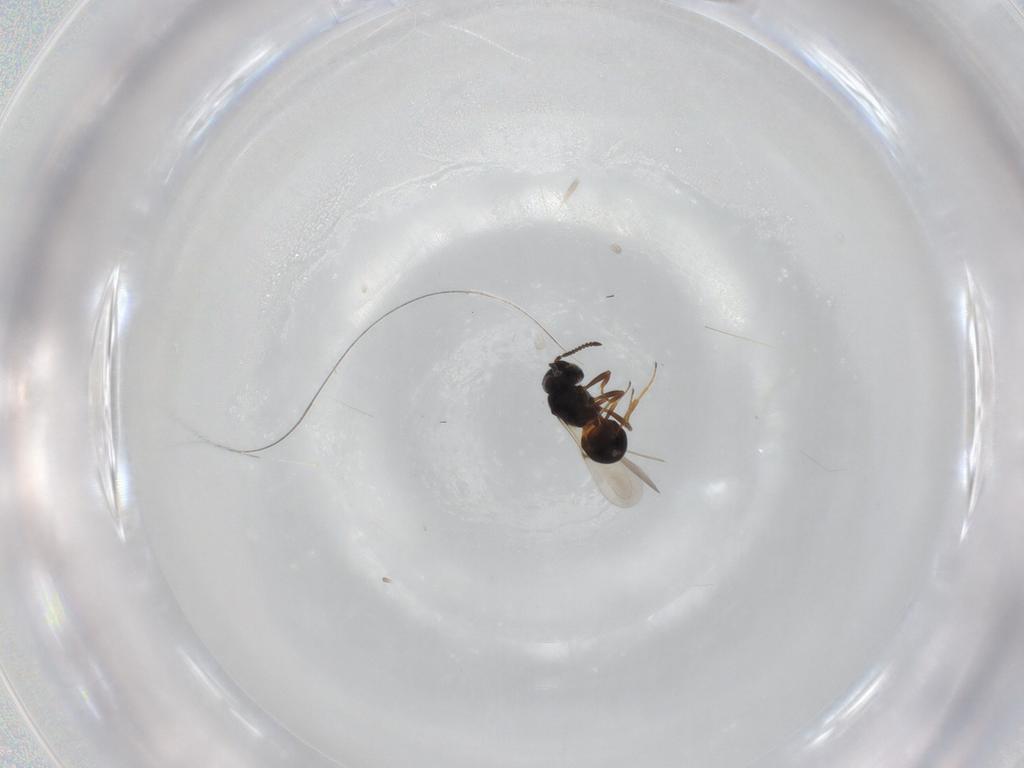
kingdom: Animalia
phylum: Arthropoda
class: Insecta
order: Hymenoptera
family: Scelionidae
